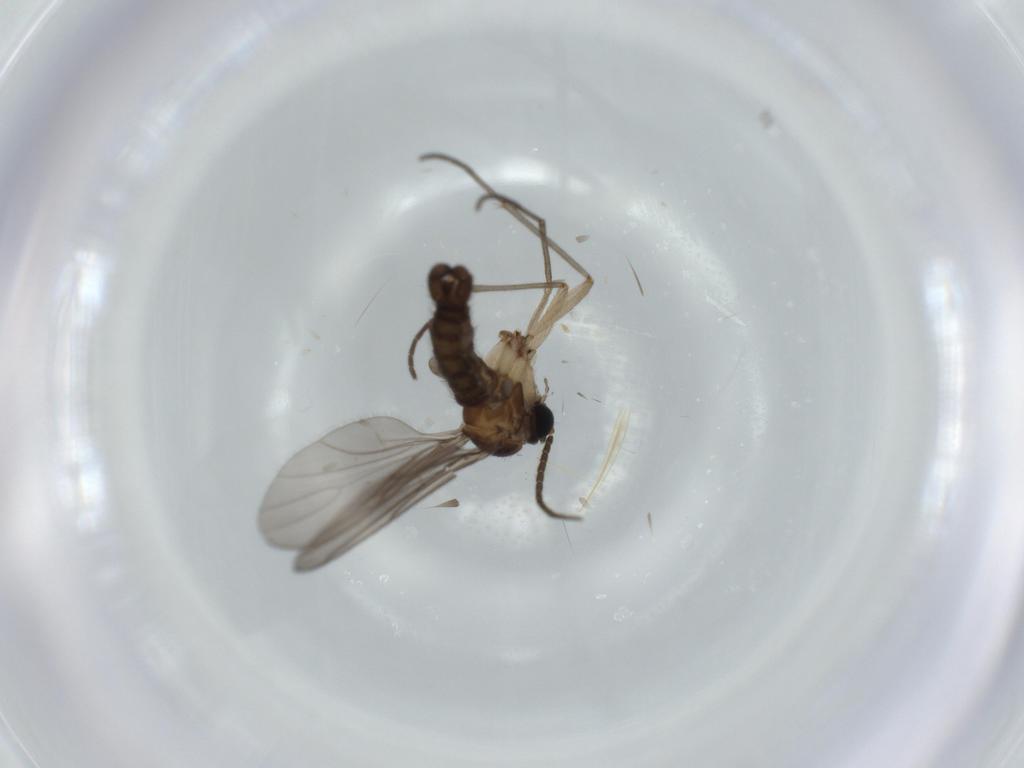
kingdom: Animalia
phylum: Arthropoda
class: Insecta
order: Diptera
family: Sciaridae
